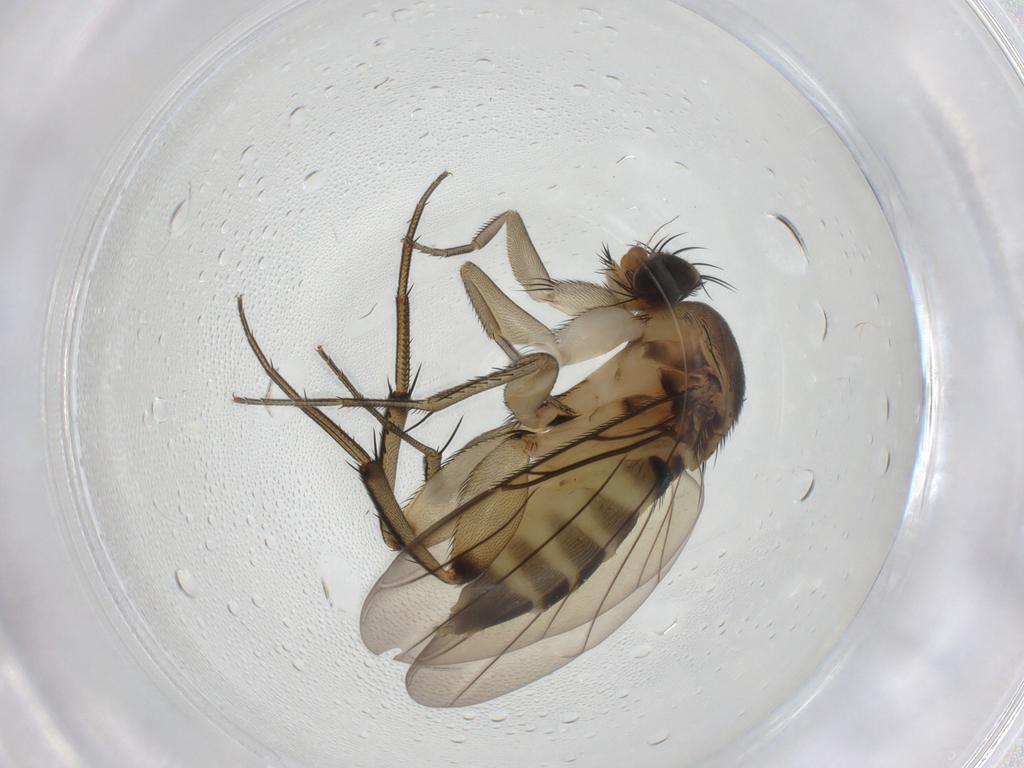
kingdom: Animalia
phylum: Arthropoda
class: Insecta
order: Diptera
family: Phoridae
